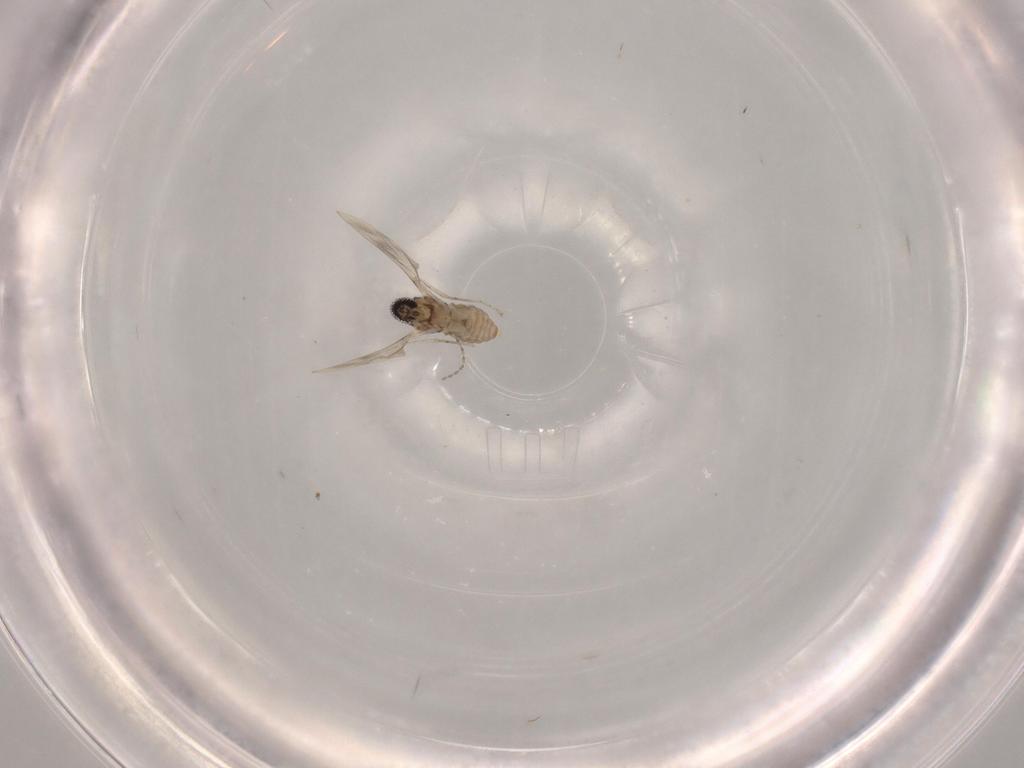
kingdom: Animalia
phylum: Arthropoda
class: Insecta
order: Diptera
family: Cecidomyiidae
